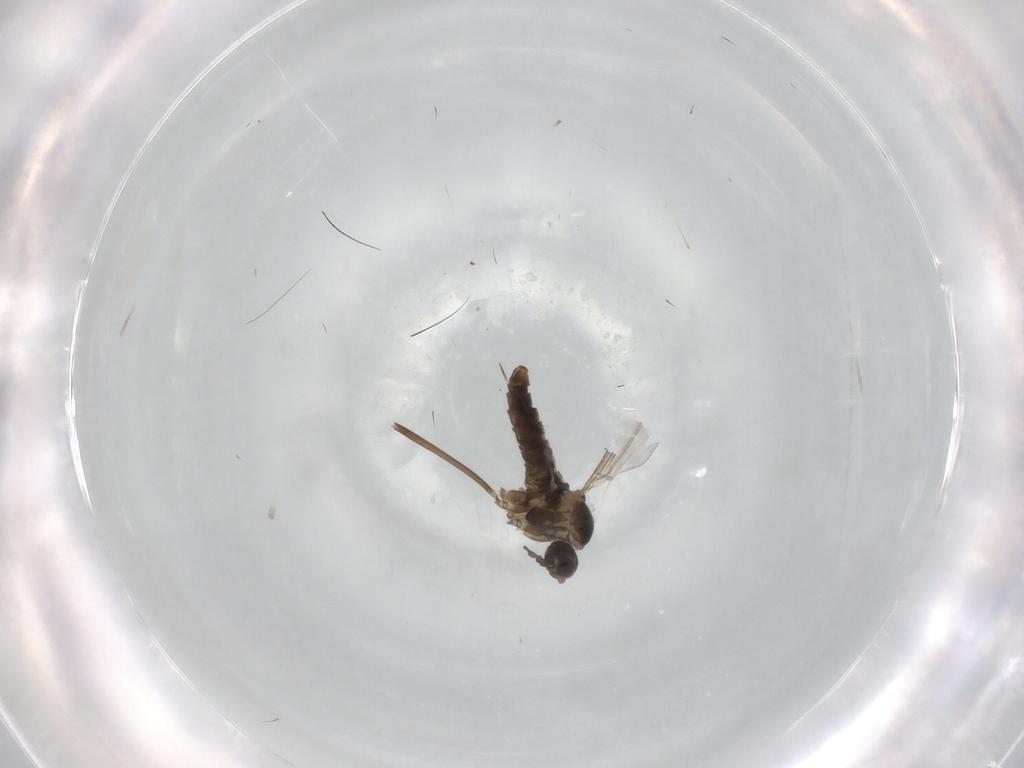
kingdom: Animalia
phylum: Arthropoda
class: Insecta
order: Diptera
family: Cecidomyiidae
